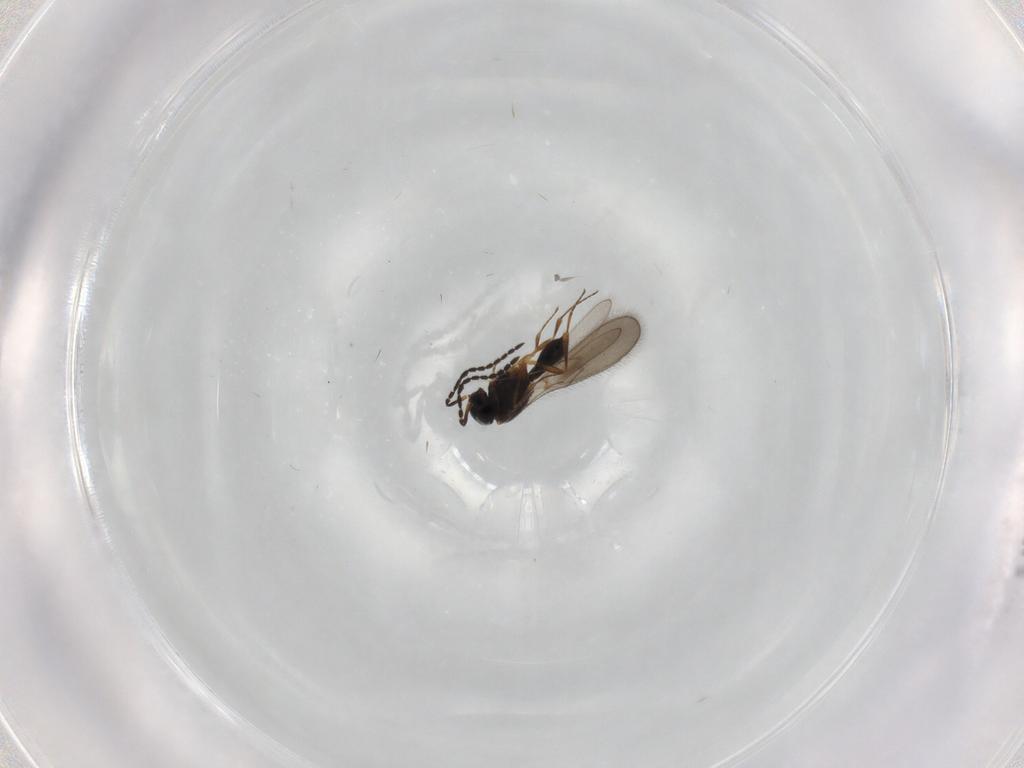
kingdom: Animalia
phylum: Arthropoda
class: Insecta
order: Hymenoptera
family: Scelionidae
